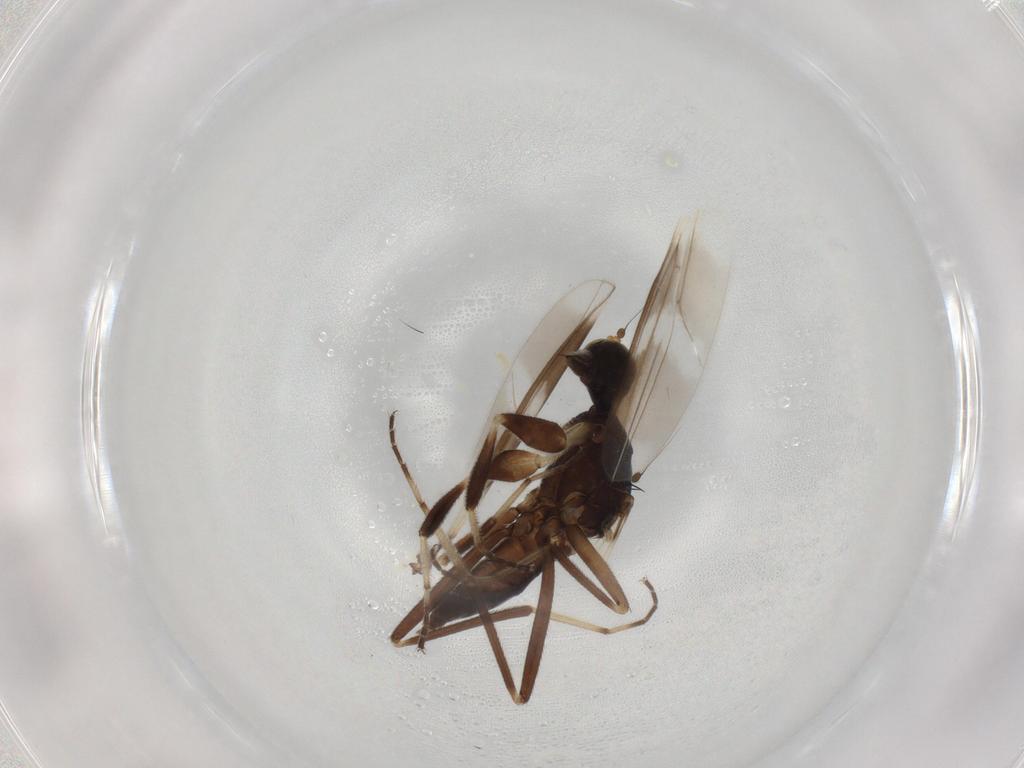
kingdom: Animalia
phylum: Arthropoda
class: Insecta
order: Diptera
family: Hybotidae
